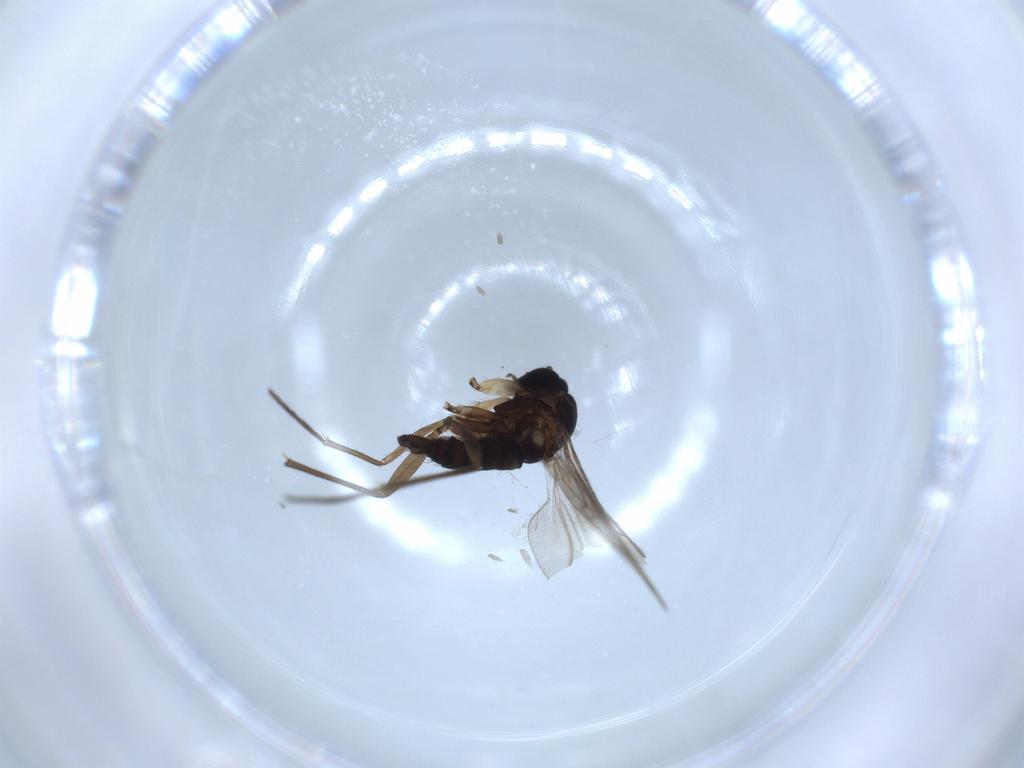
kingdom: Animalia
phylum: Arthropoda
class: Insecta
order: Diptera
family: Sciaridae
